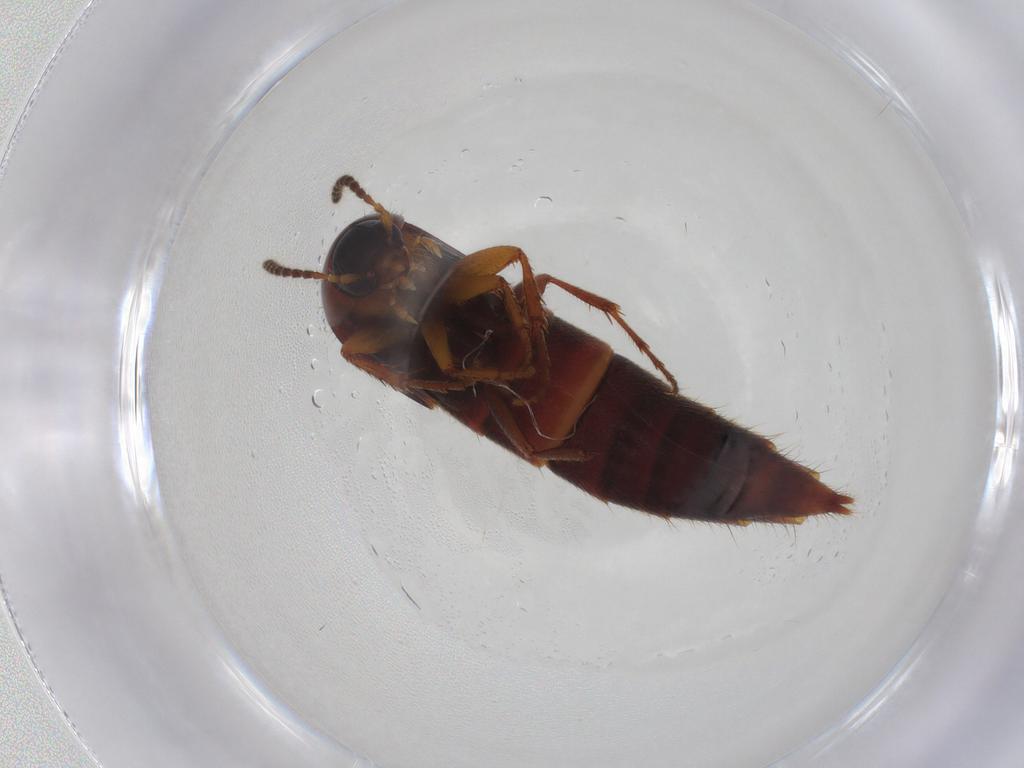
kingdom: Animalia
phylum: Arthropoda
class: Insecta
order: Coleoptera
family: Staphylinidae
